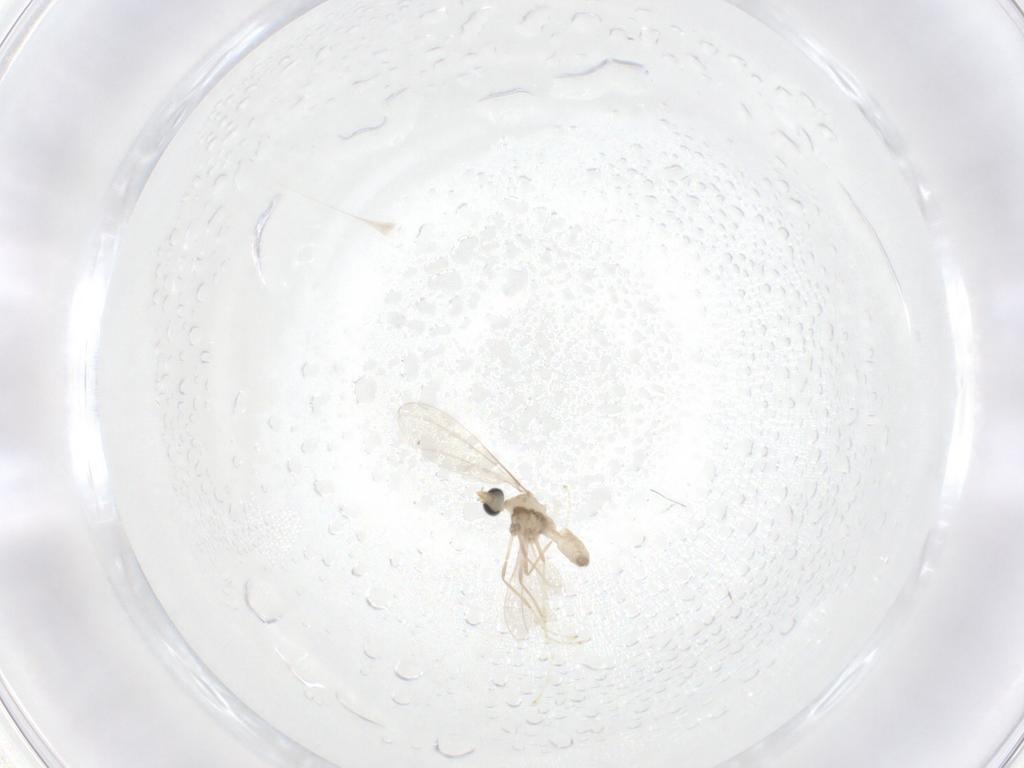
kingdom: Animalia
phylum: Arthropoda
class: Insecta
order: Diptera
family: Cecidomyiidae
